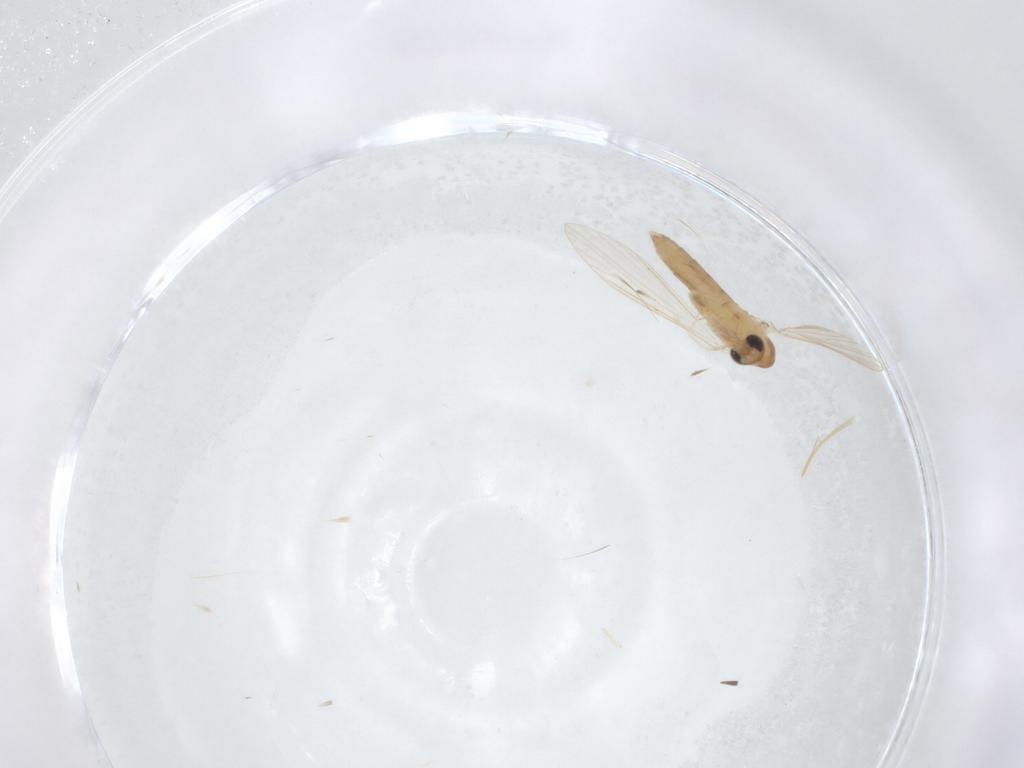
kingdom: Animalia
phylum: Arthropoda
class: Insecta
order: Diptera
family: Psychodidae
